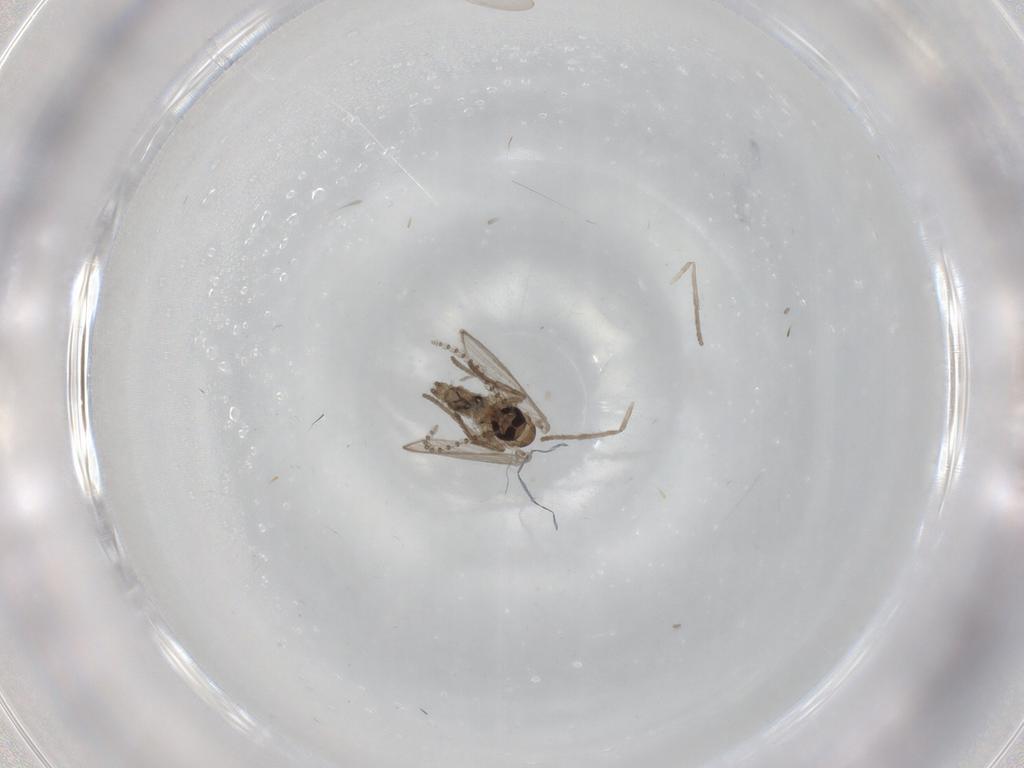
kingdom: Animalia
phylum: Arthropoda
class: Insecta
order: Diptera
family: Psychodidae
